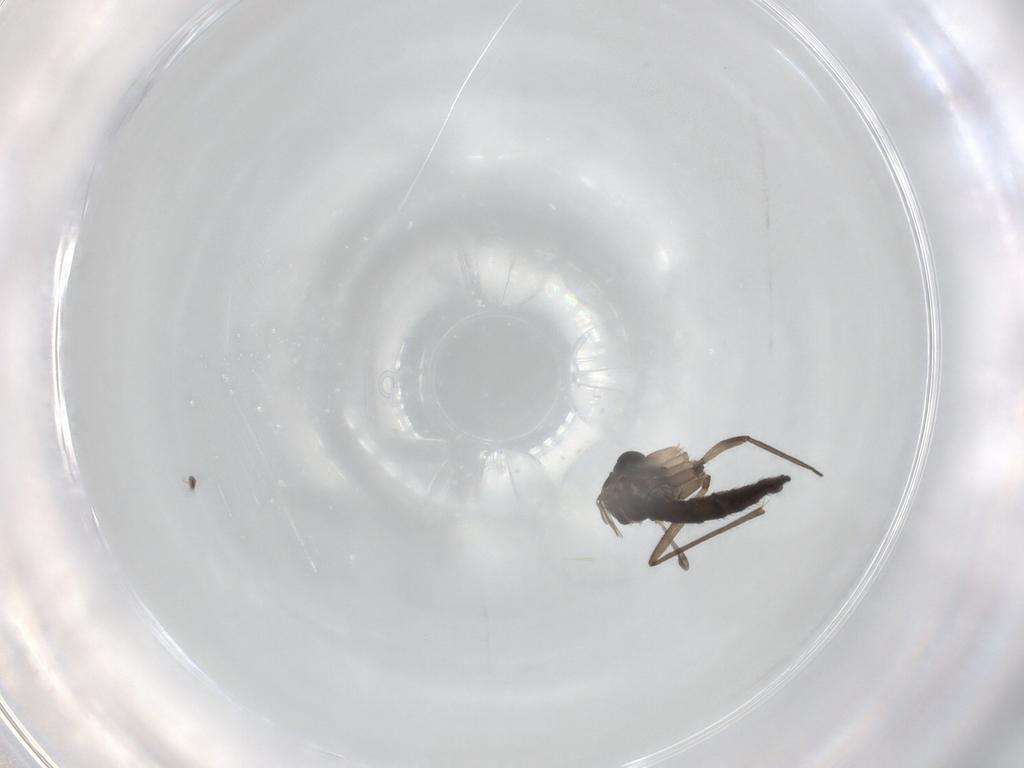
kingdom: Animalia
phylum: Arthropoda
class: Insecta
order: Diptera
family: Sciaridae
